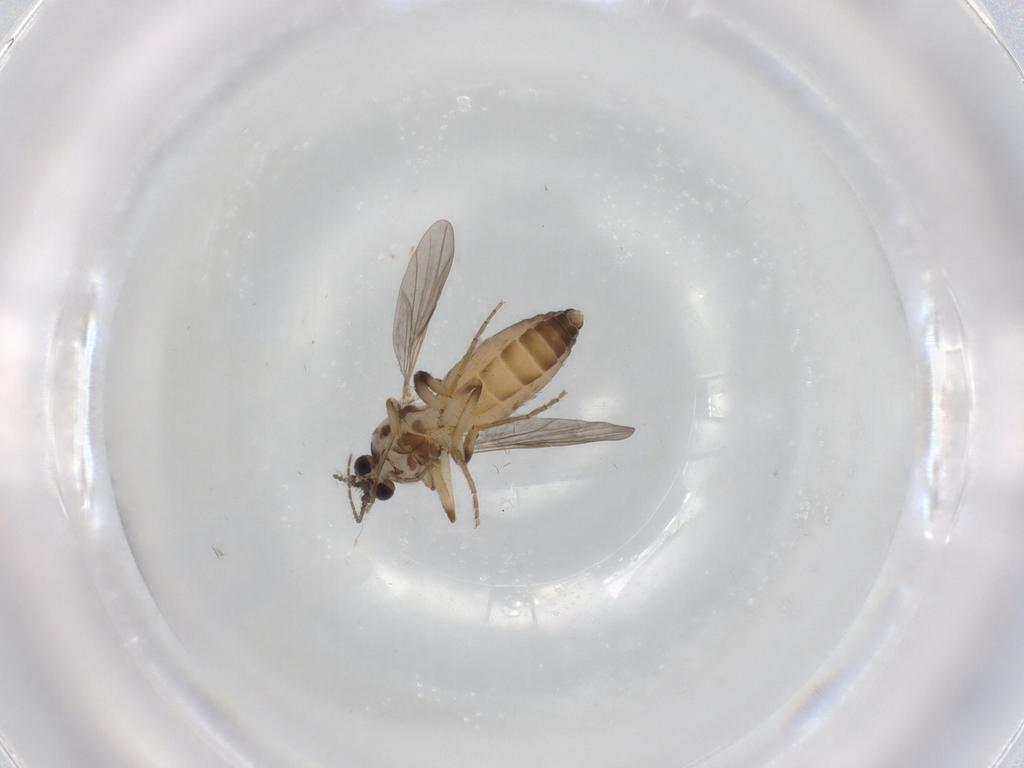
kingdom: Animalia
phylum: Arthropoda
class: Insecta
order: Diptera
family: Ceratopogonidae
